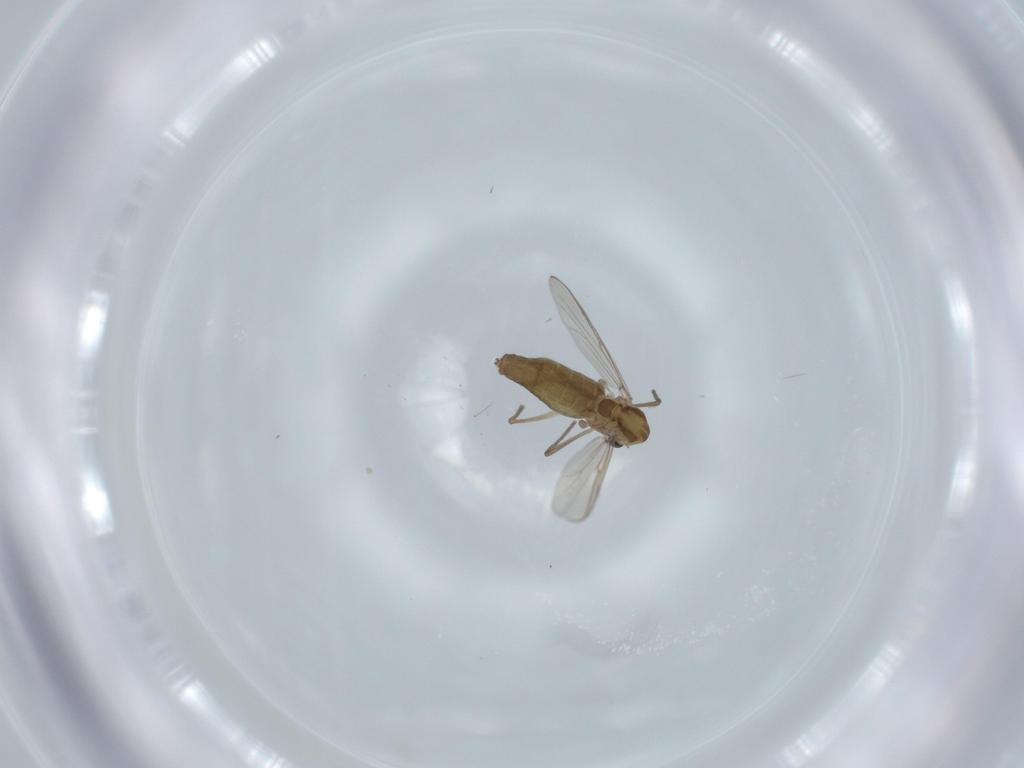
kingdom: Animalia
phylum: Arthropoda
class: Insecta
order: Diptera
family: Chironomidae
